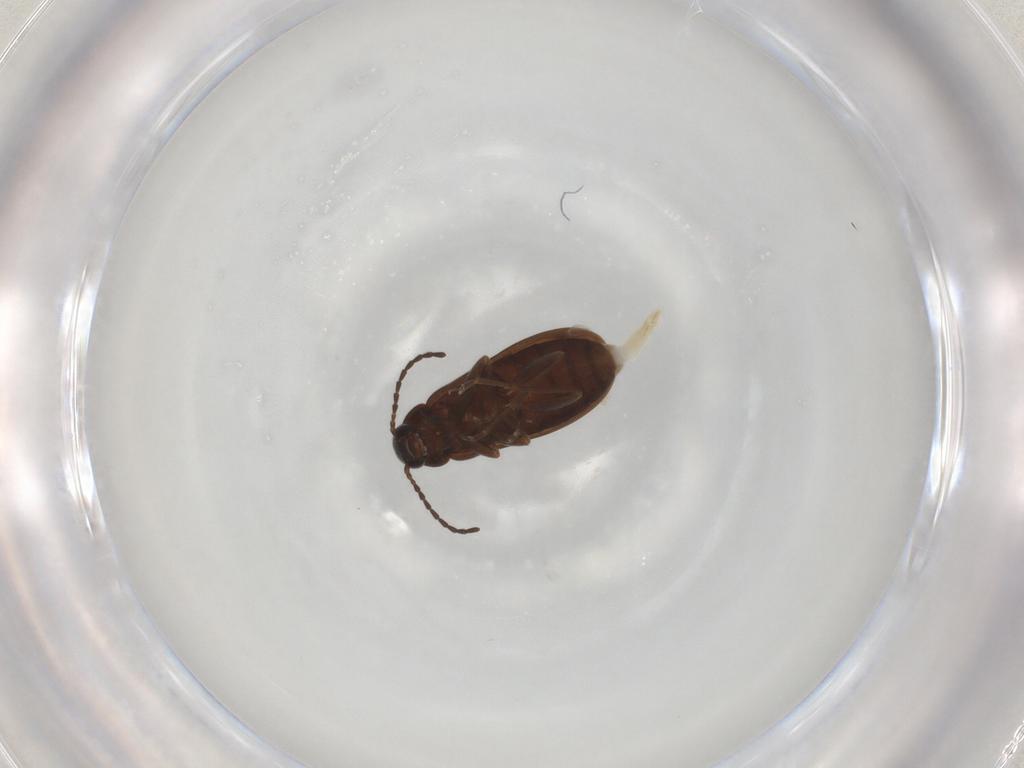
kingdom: Animalia
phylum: Arthropoda
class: Insecta
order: Coleoptera
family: Scraptiidae
